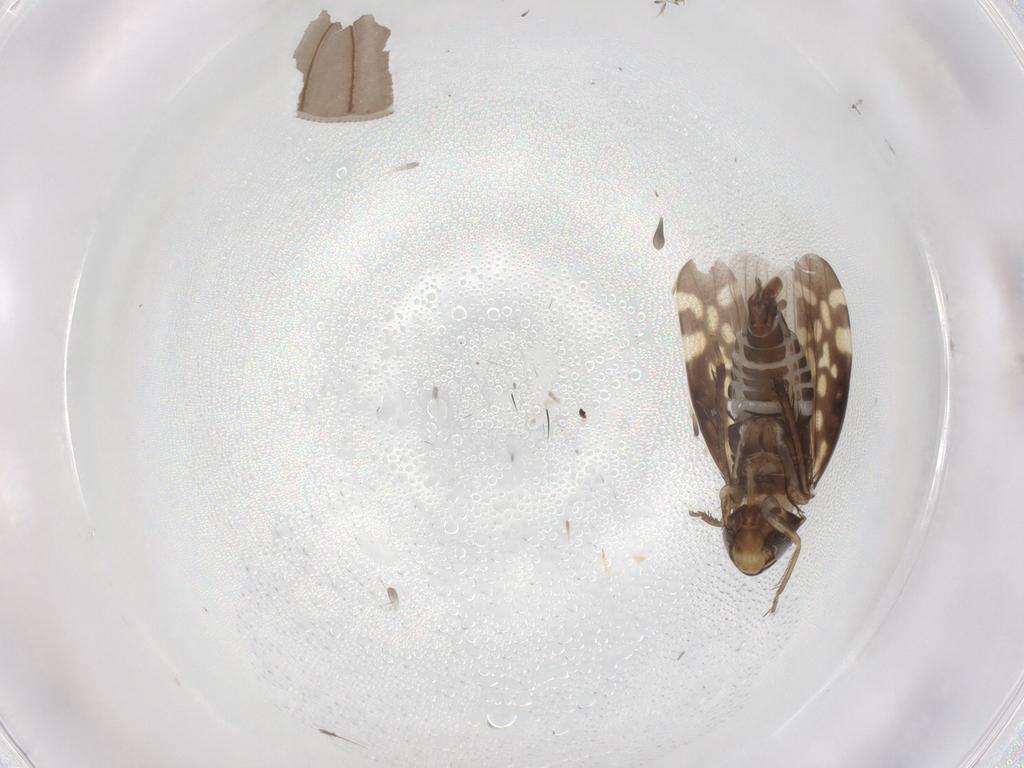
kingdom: Animalia
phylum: Arthropoda
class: Insecta
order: Hemiptera
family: Cicadellidae
